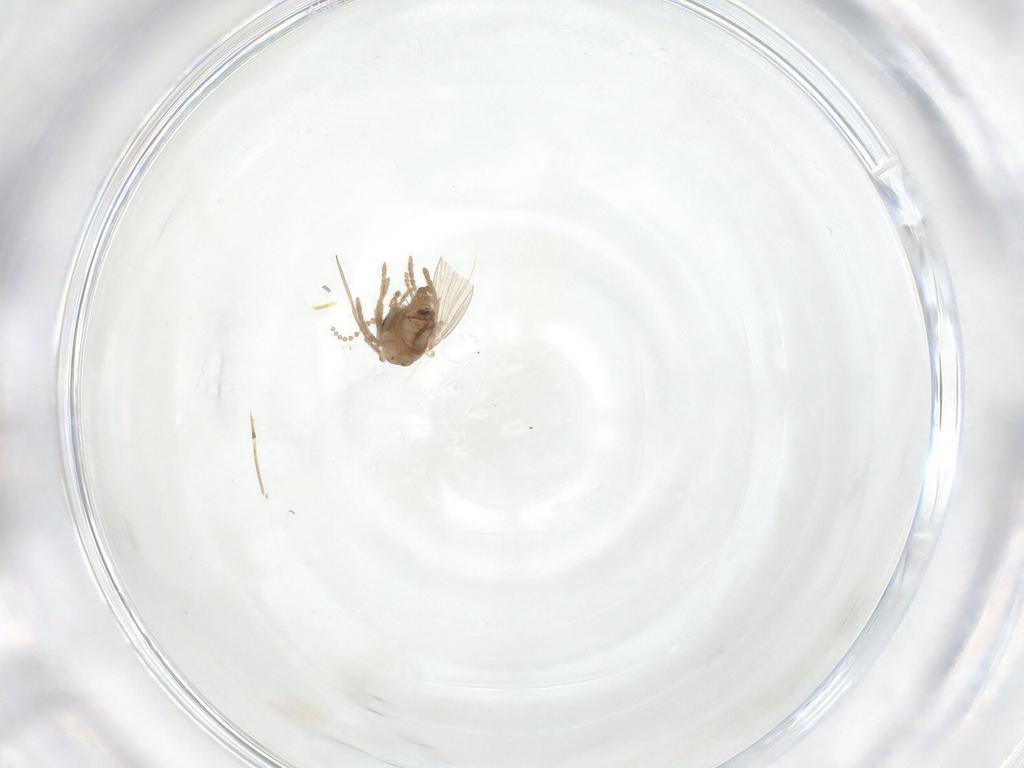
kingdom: Animalia
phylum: Arthropoda
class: Insecta
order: Diptera
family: Psychodidae
